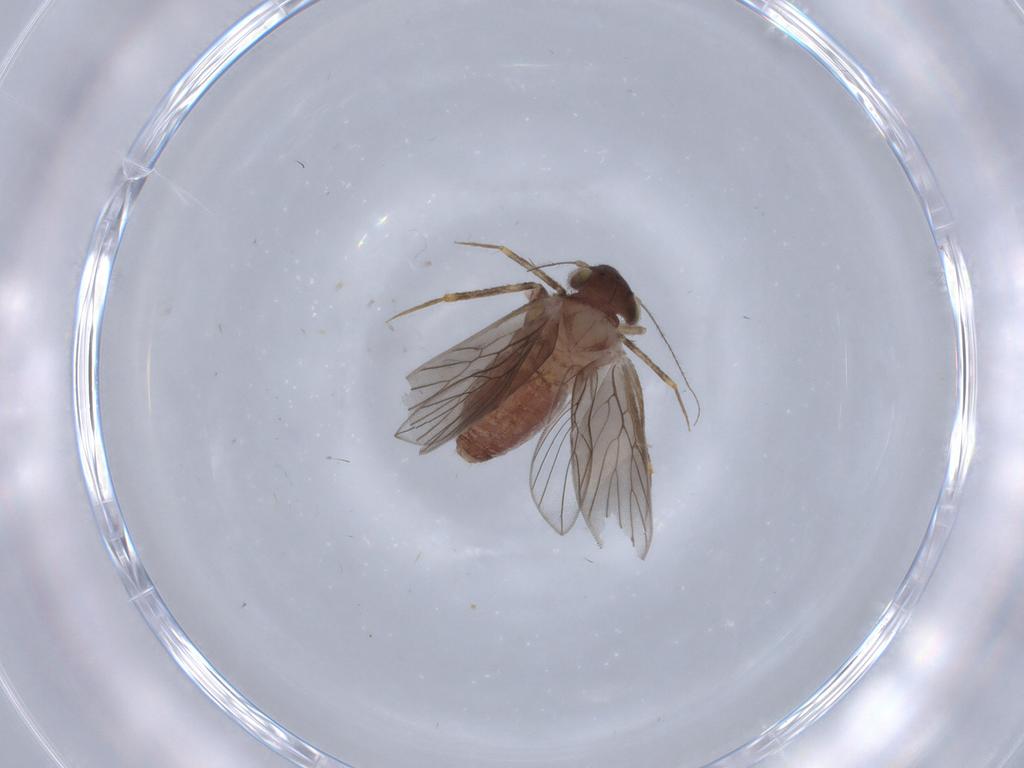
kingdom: Animalia
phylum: Arthropoda
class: Insecta
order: Psocodea
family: Lepidopsocidae
